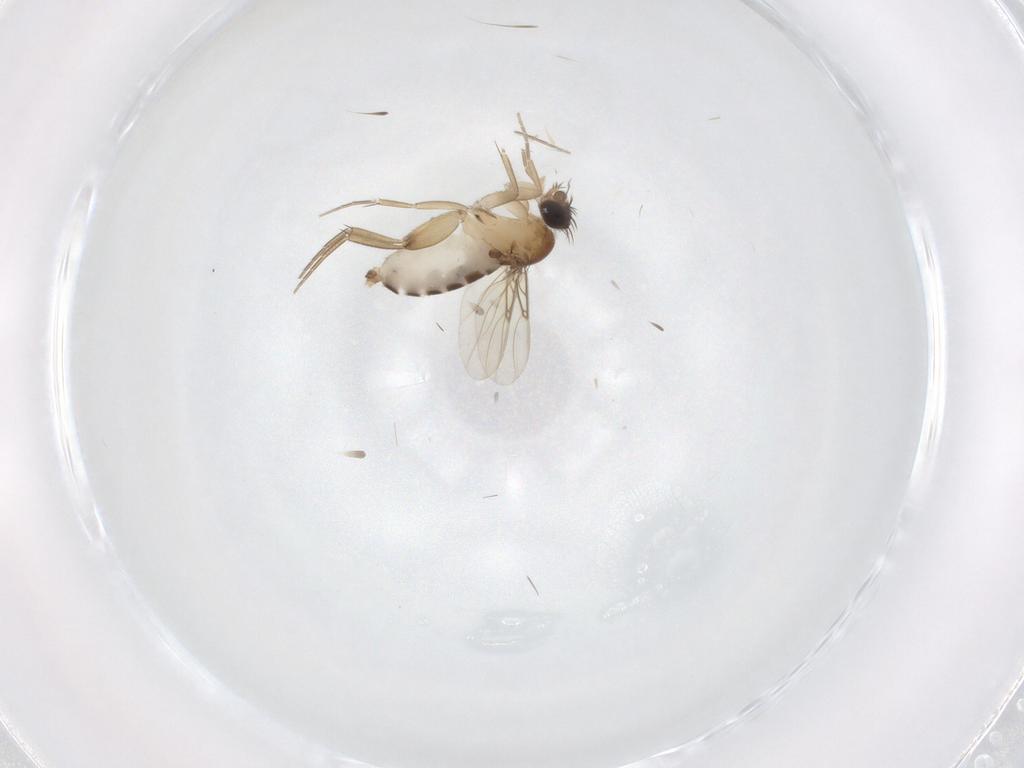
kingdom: Animalia
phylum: Arthropoda
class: Insecta
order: Diptera
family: Phoridae
